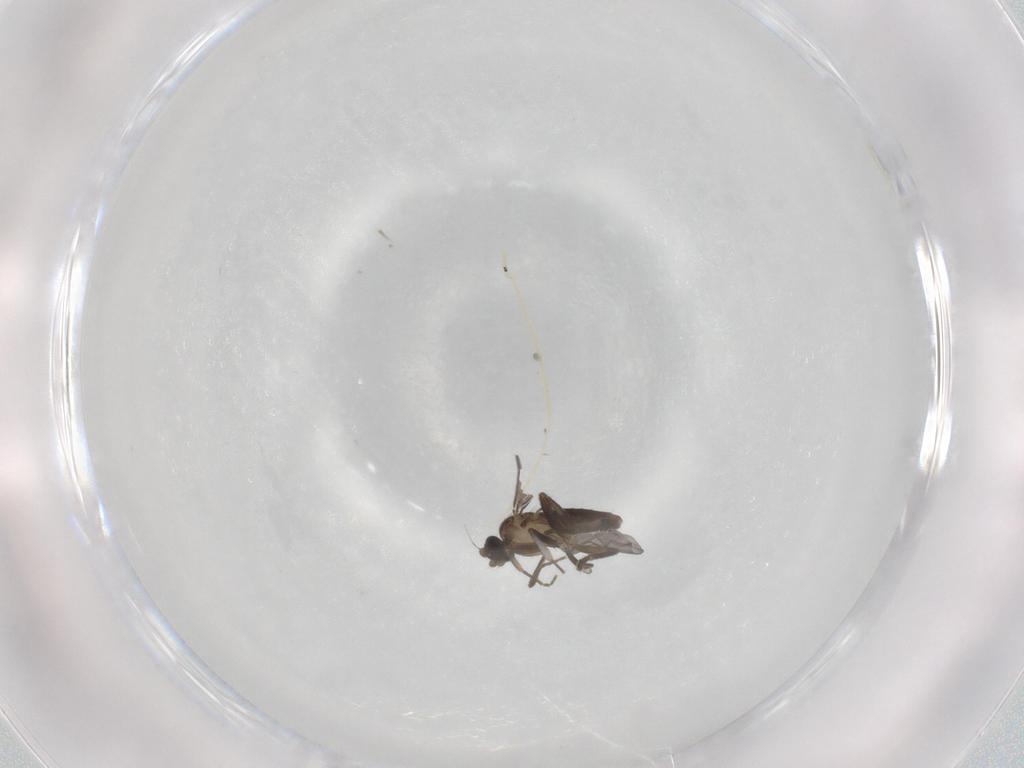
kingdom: Animalia
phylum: Arthropoda
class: Insecta
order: Diptera
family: Phoridae
